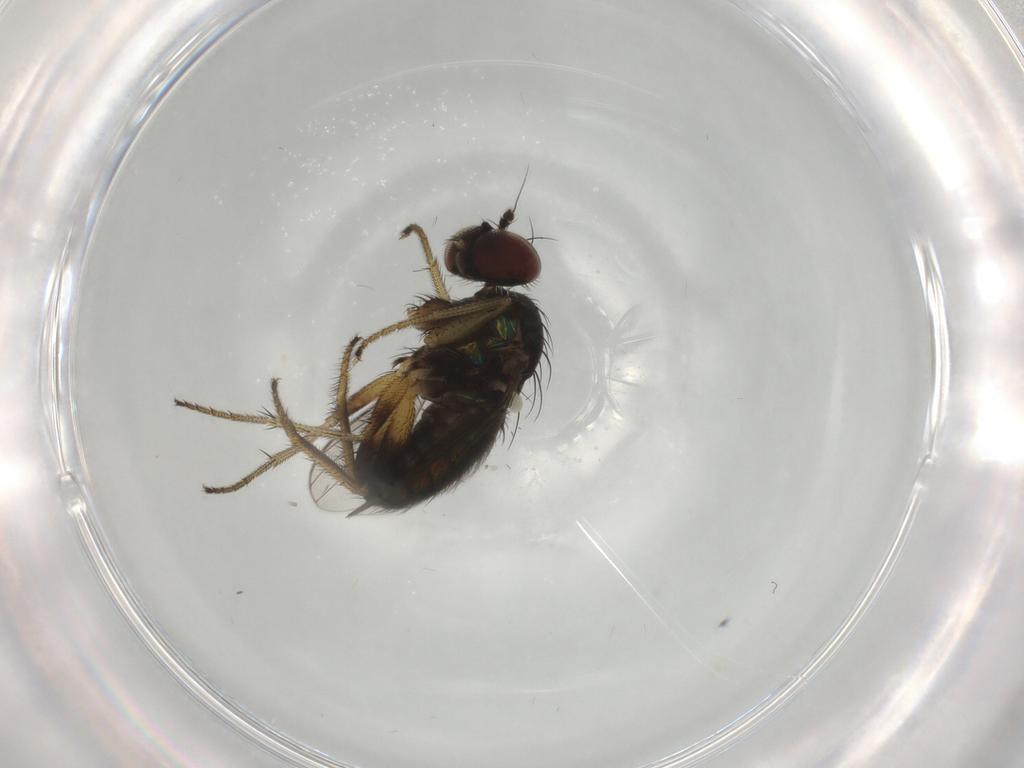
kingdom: Animalia
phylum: Arthropoda
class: Insecta
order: Diptera
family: Dolichopodidae
